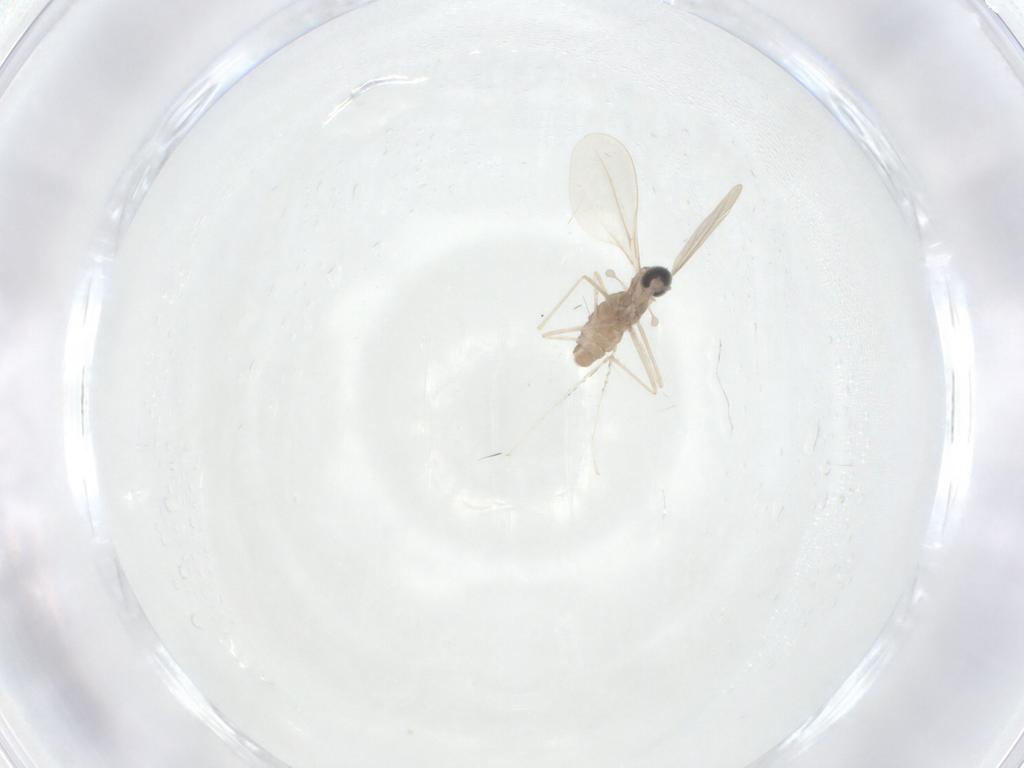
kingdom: Animalia
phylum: Arthropoda
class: Insecta
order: Diptera
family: Cecidomyiidae
